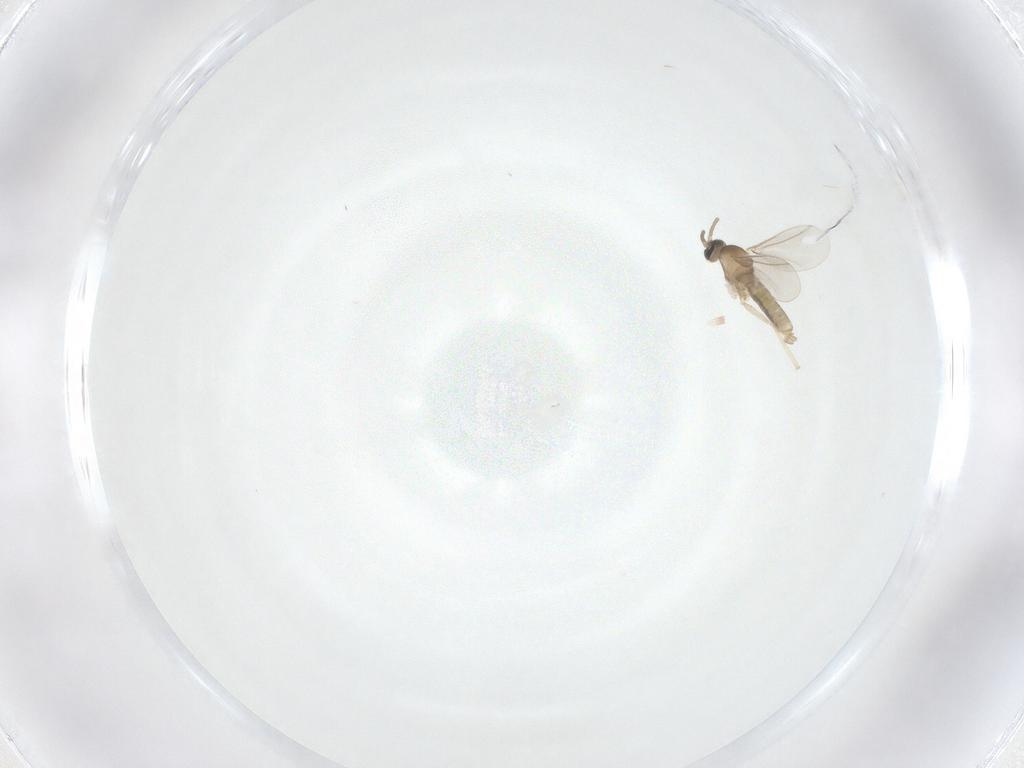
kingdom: Animalia
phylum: Arthropoda
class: Insecta
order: Diptera
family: Cecidomyiidae
